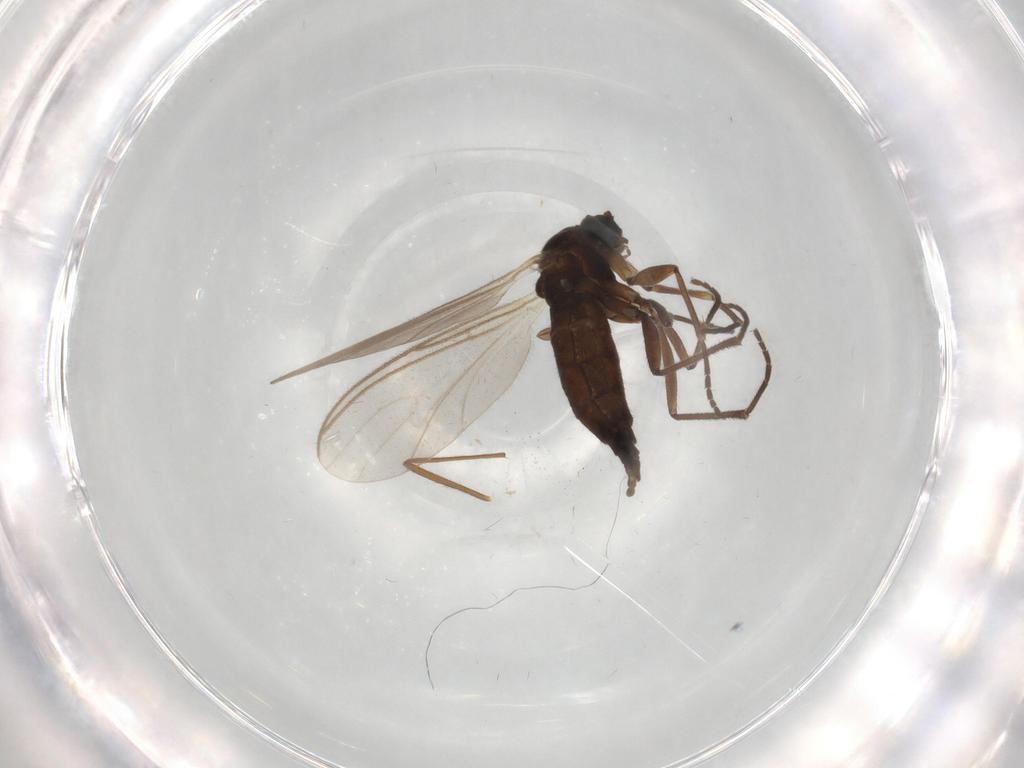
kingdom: Animalia
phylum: Arthropoda
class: Insecta
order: Diptera
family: Sciaridae
